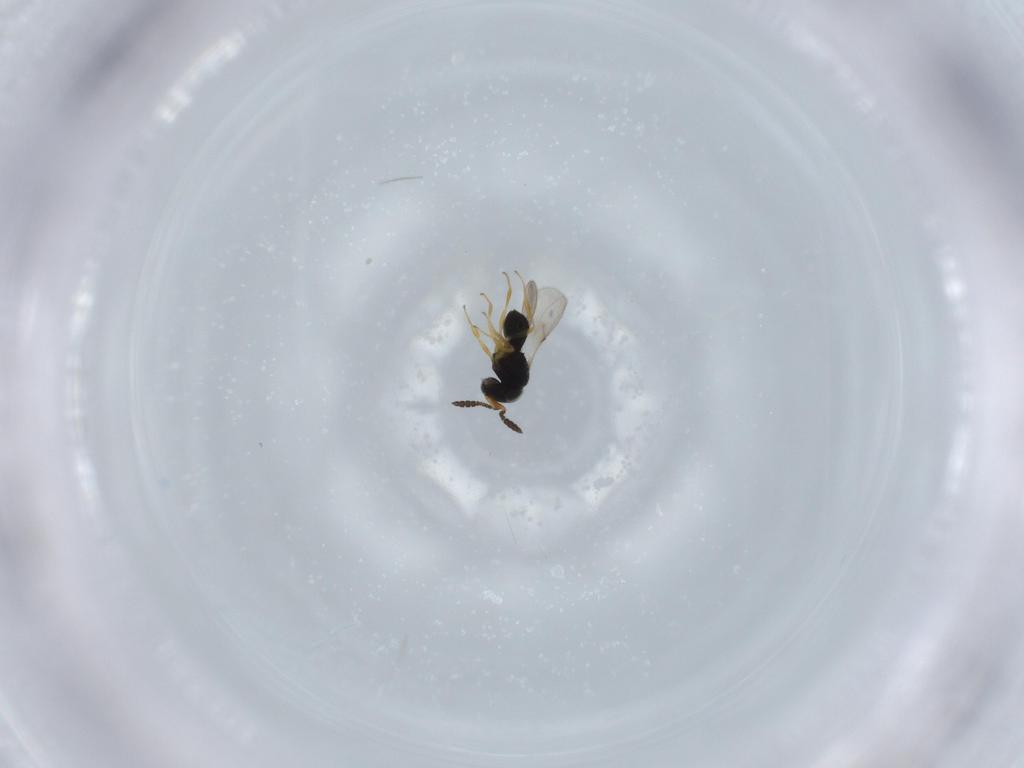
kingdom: Animalia
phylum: Arthropoda
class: Insecta
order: Hymenoptera
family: Scelionidae
